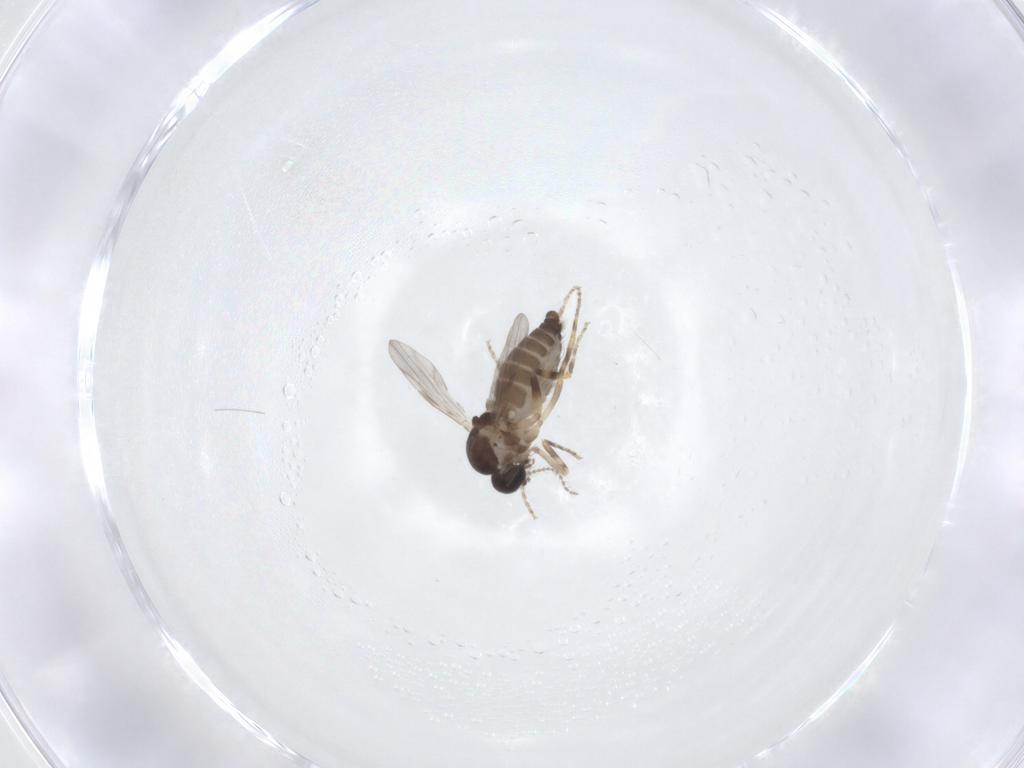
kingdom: Animalia
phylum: Arthropoda
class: Insecta
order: Diptera
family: Ceratopogonidae
